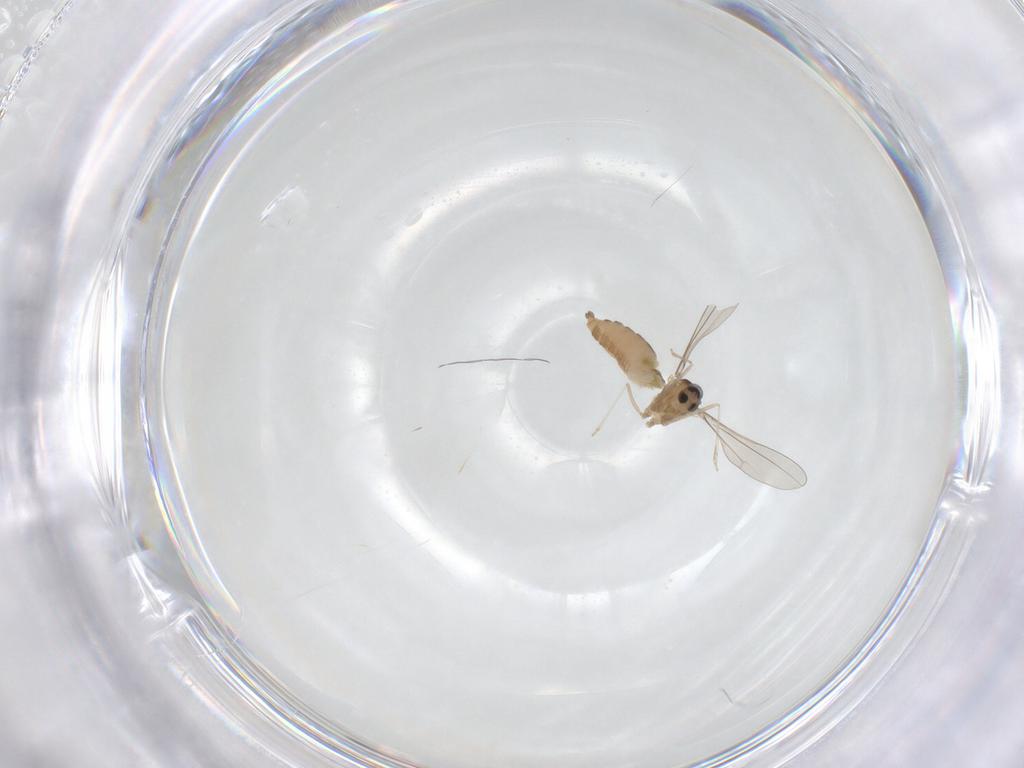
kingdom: Animalia
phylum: Arthropoda
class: Insecta
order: Diptera
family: Cecidomyiidae
